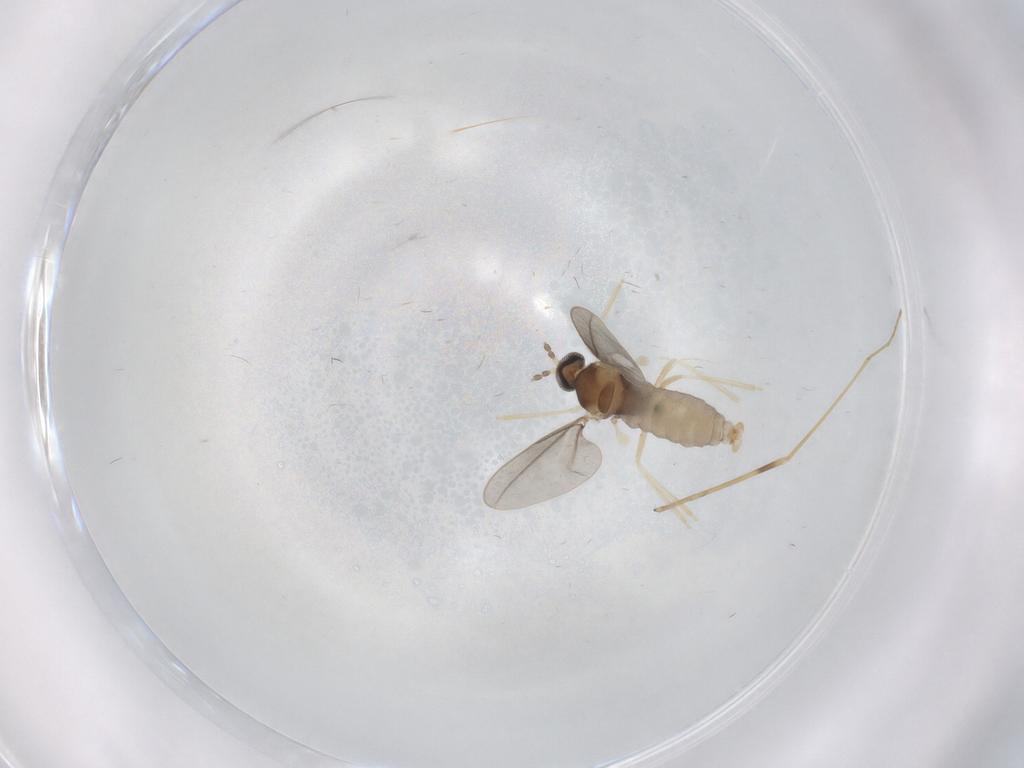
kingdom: Animalia
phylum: Arthropoda
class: Insecta
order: Diptera
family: Cecidomyiidae
